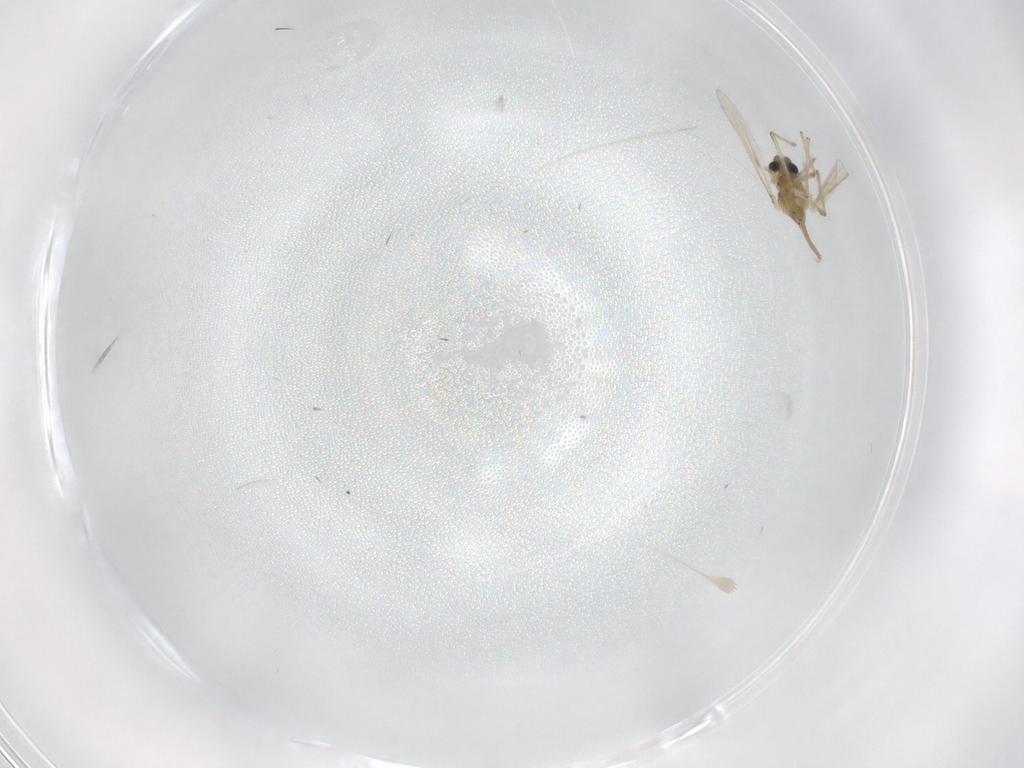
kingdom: Animalia
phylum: Arthropoda
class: Insecta
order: Diptera
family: Chironomidae
